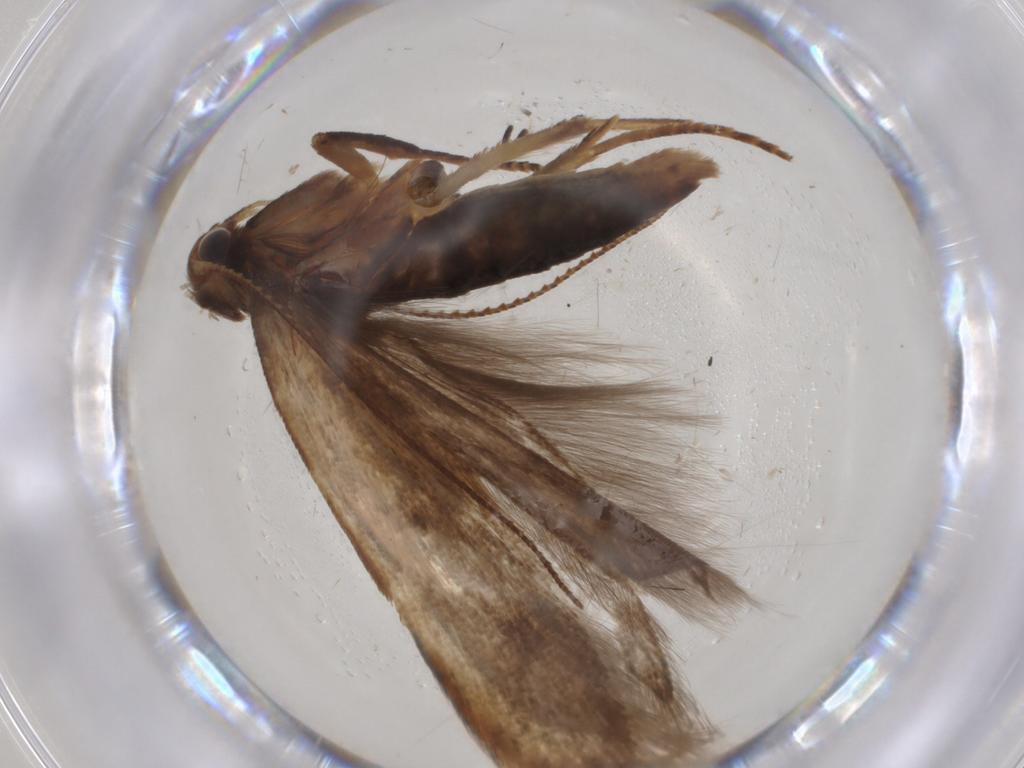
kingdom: Animalia
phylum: Arthropoda
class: Insecta
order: Lepidoptera
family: Gelechiidae
